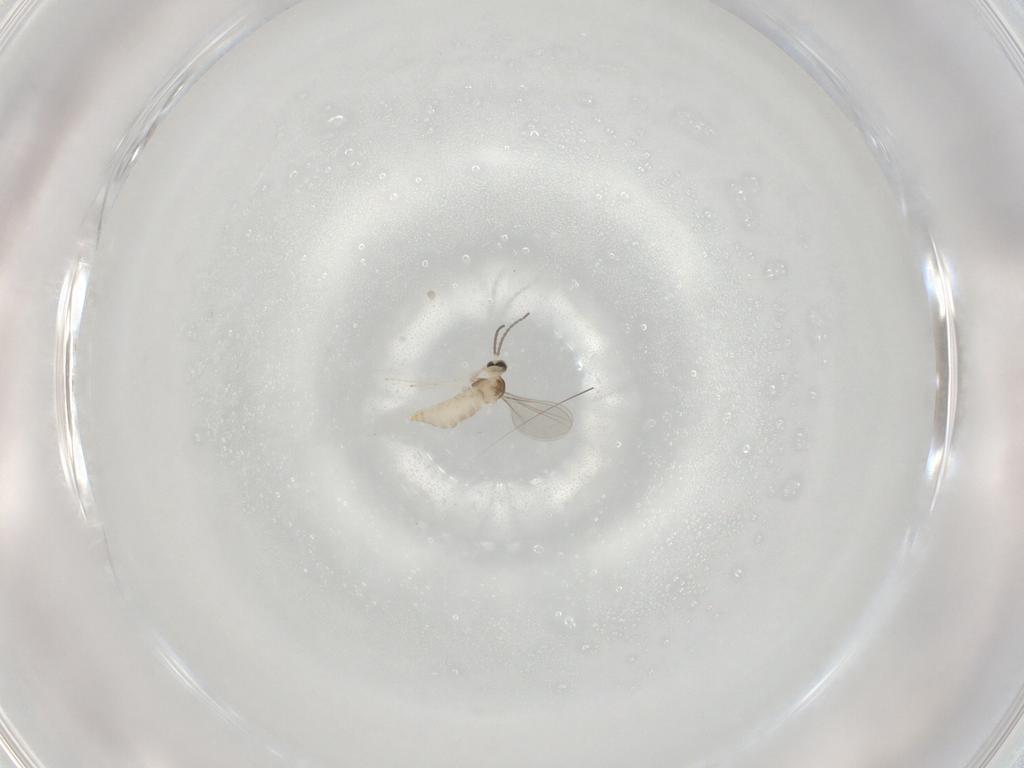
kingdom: Animalia
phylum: Arthropoda
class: Insecta
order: Diptera
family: Cecidomyiidae
